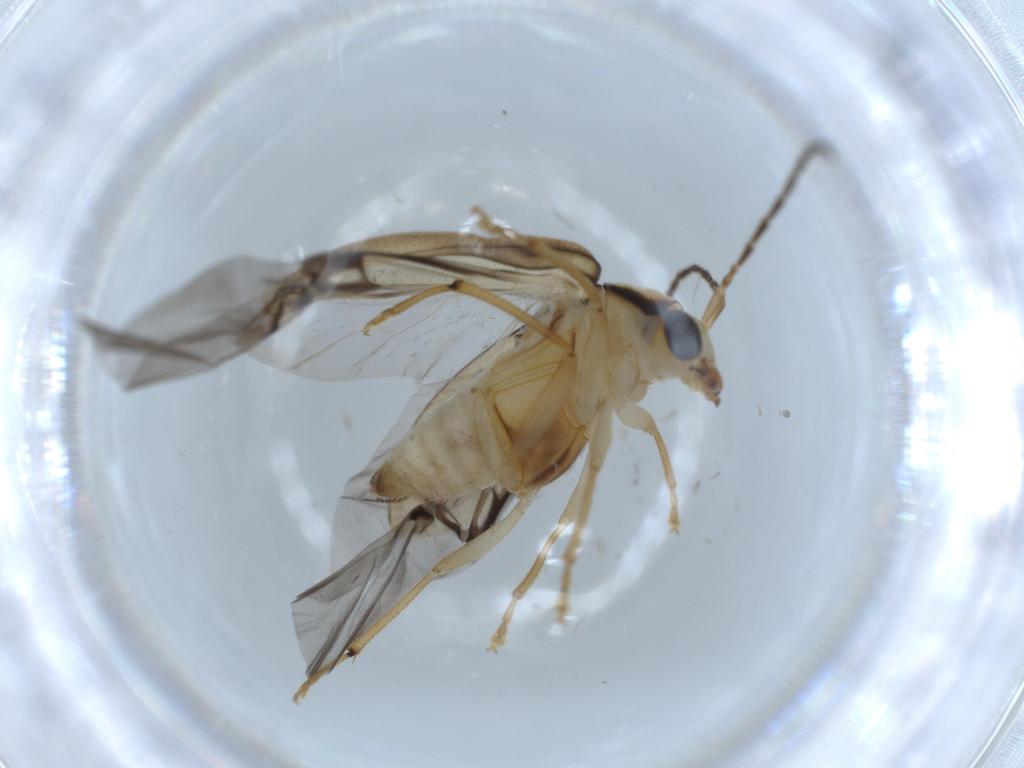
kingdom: Animalia
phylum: Arthropoda
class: Insecta
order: Coleoptera
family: Chrysomelidae
